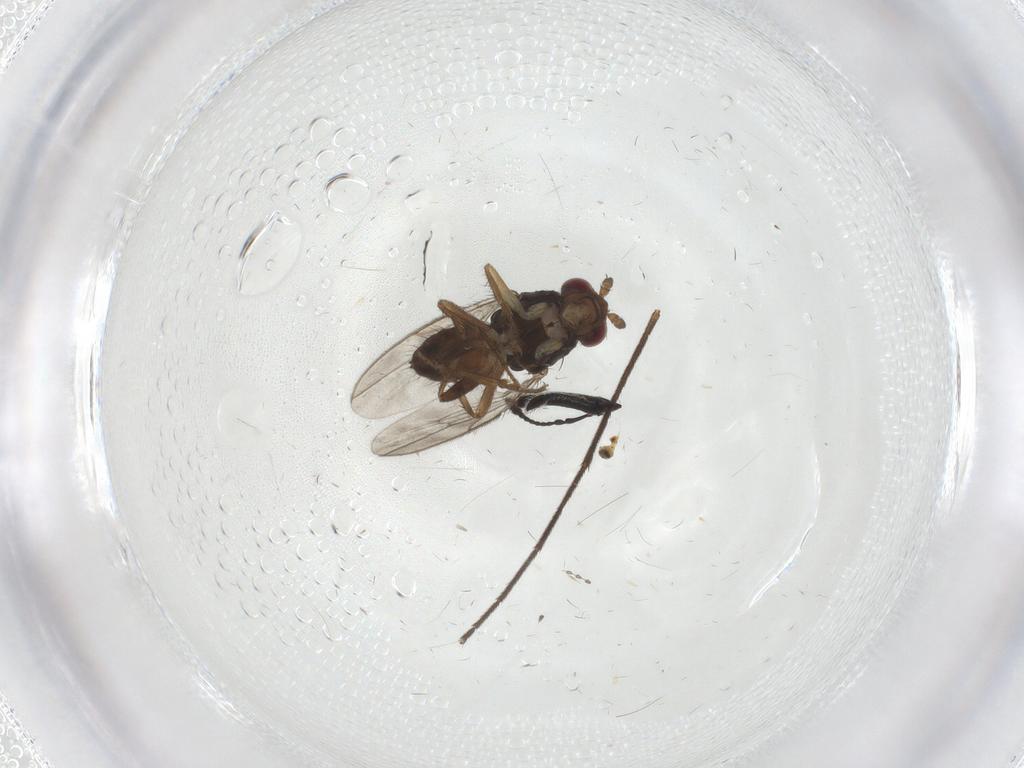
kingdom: Animalia
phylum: Arthropoda
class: Insecta
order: Diptera
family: Sphaeroceridae
